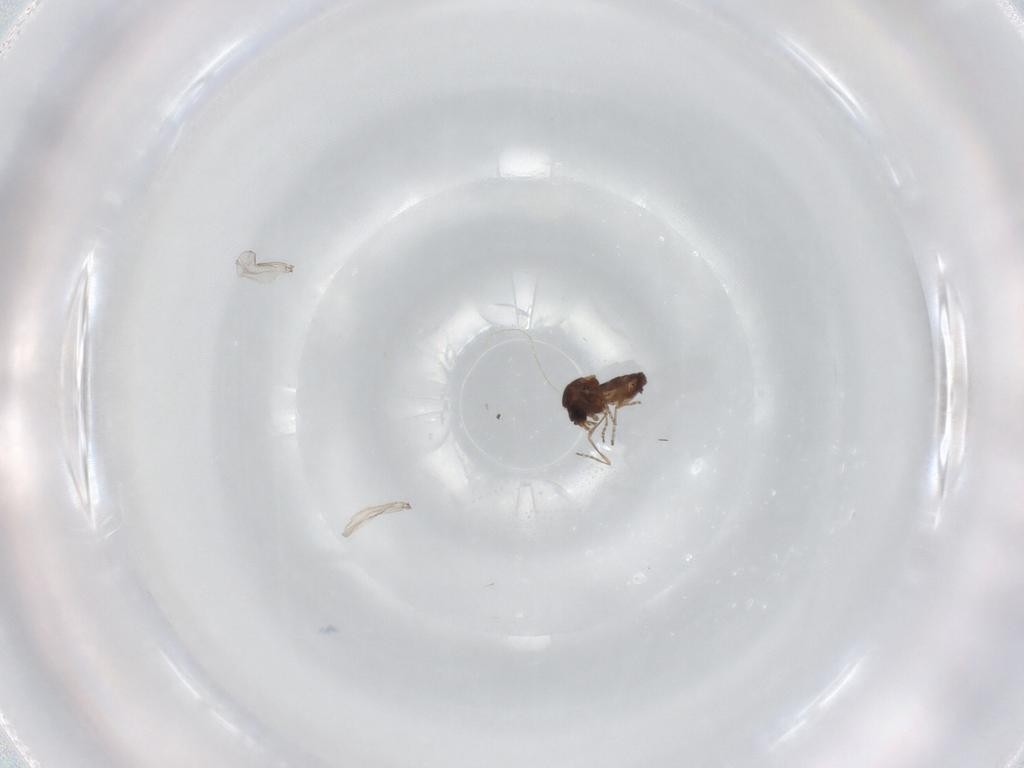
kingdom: Animalia
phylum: Arthropoda
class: Insecta
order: Diptera
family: Ceratopogonidae
